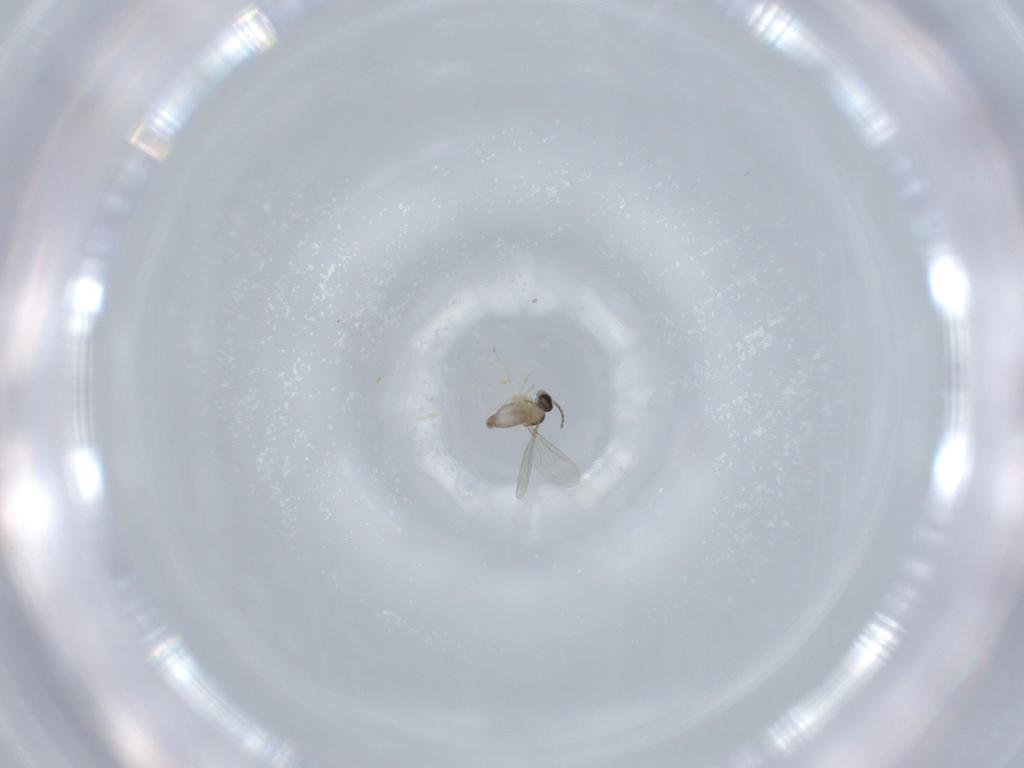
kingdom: Animalia
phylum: Arthropoda
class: Insecta
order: Diptera
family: Cecidomyiidae
